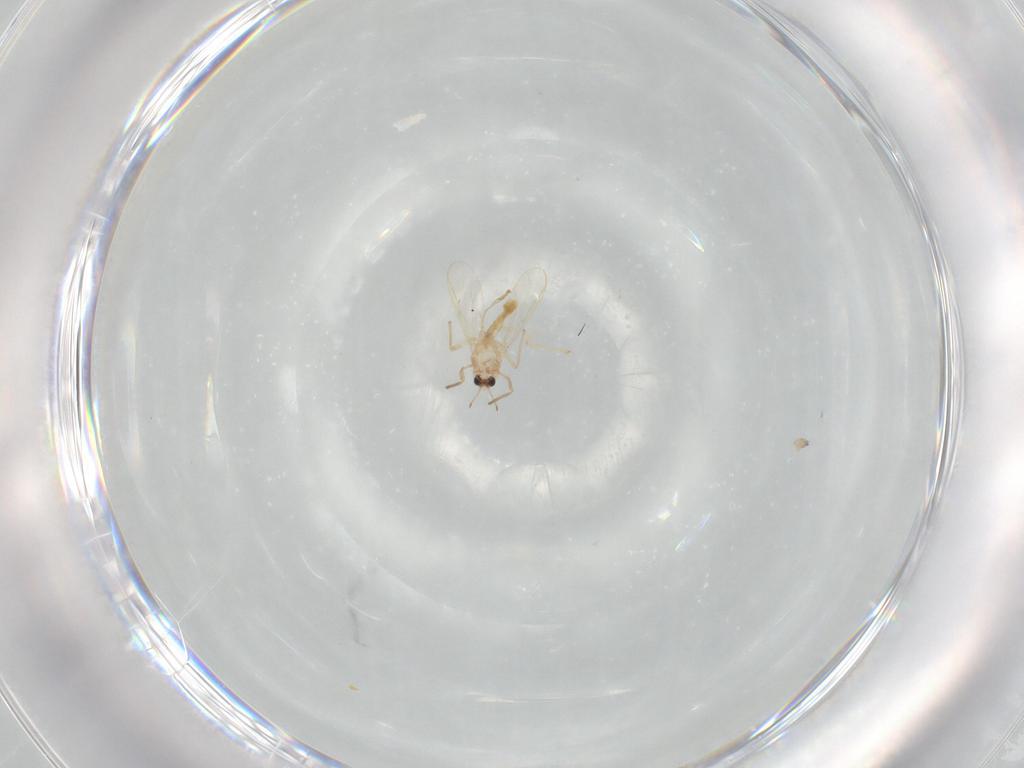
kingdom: Animalia
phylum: Arthropoda
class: Insecta
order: Diptera
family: Chironomidae
